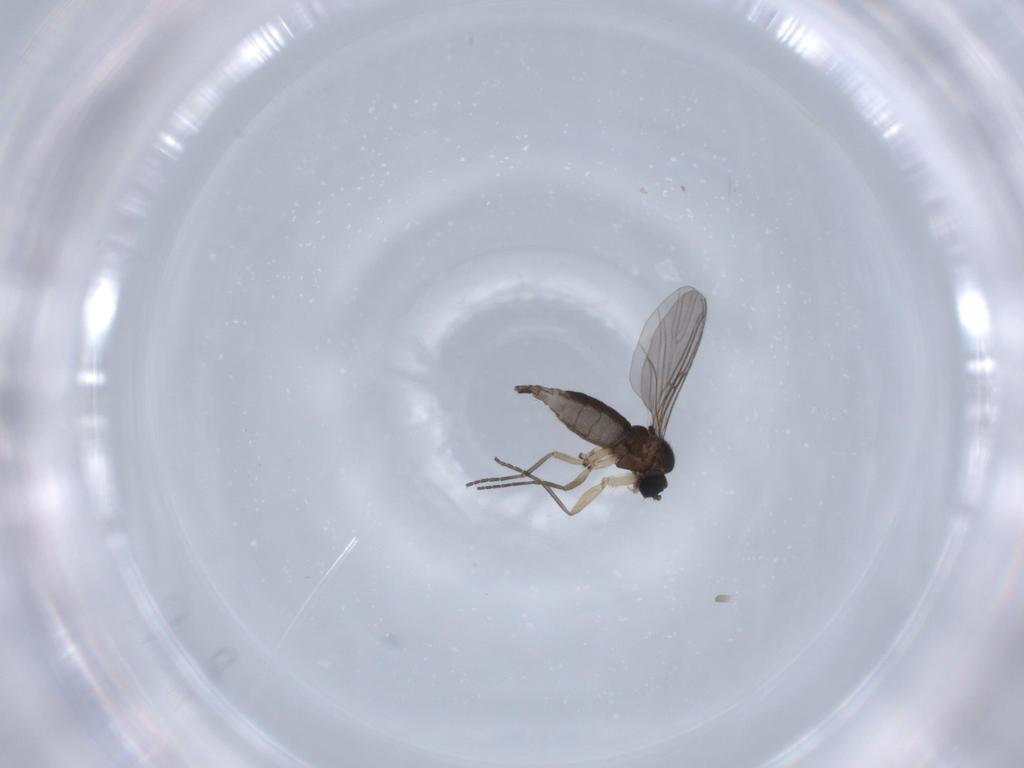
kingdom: Animalia
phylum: Arthropoda
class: Insecta
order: Diptera
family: Sciaridae
